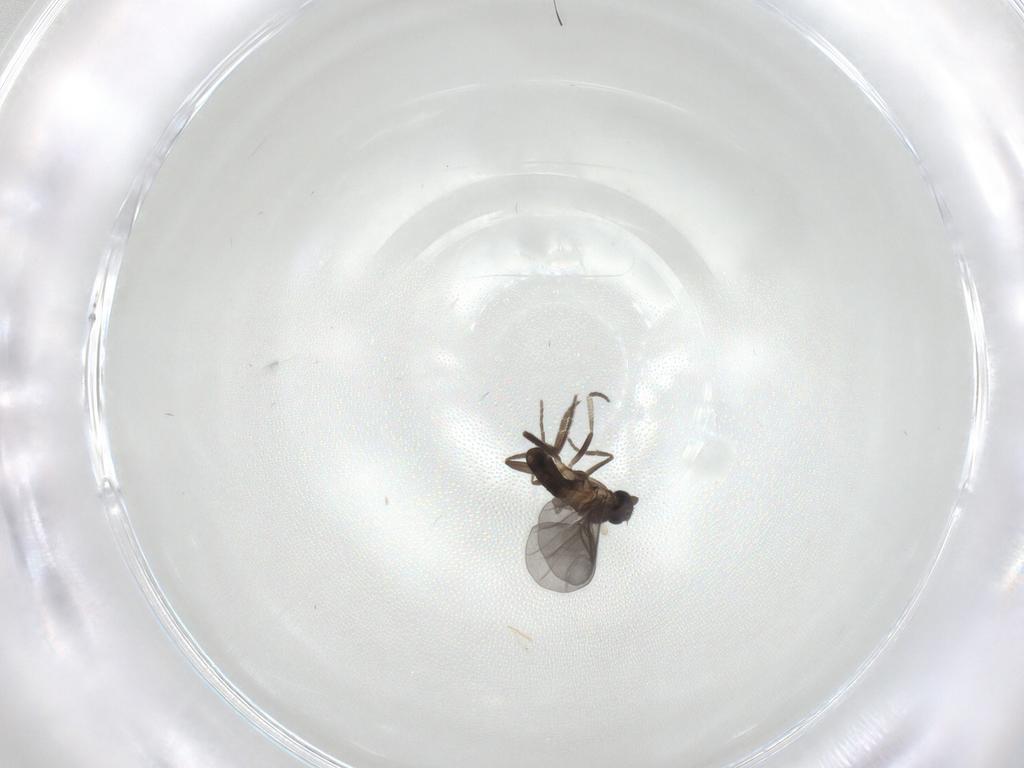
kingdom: Animalia
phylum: Arthropoda
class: Insecta
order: Diptera
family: Phoridae
